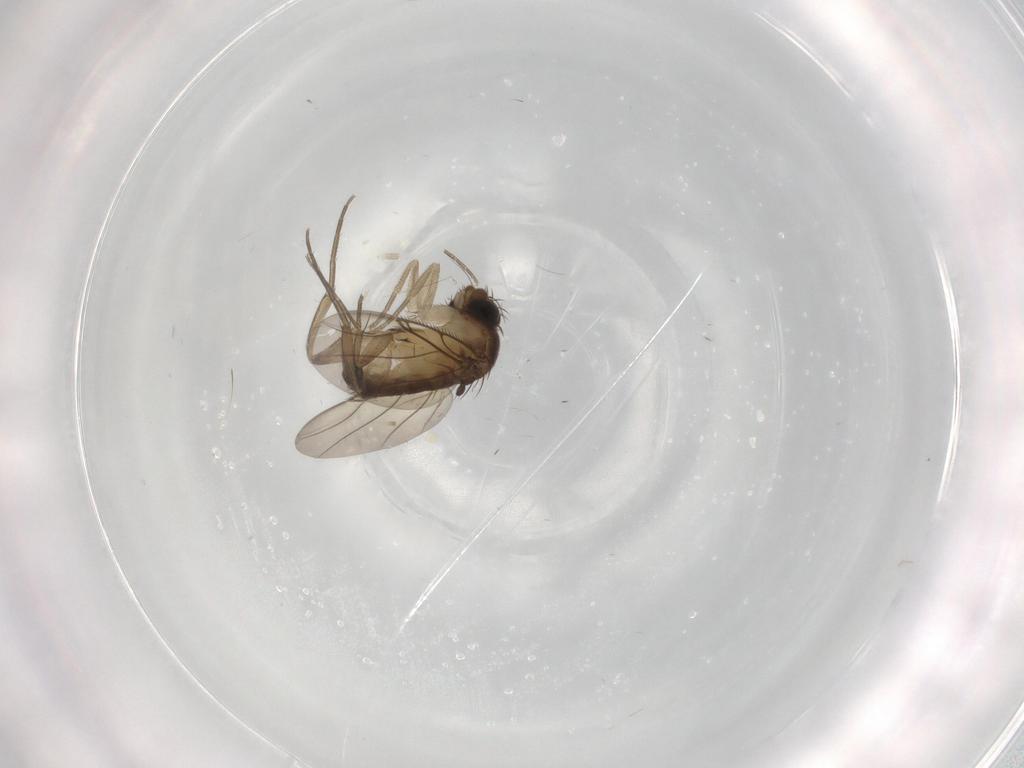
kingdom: Animalia
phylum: Arthropoda
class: Insecta
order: Diptera
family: Phoridae
